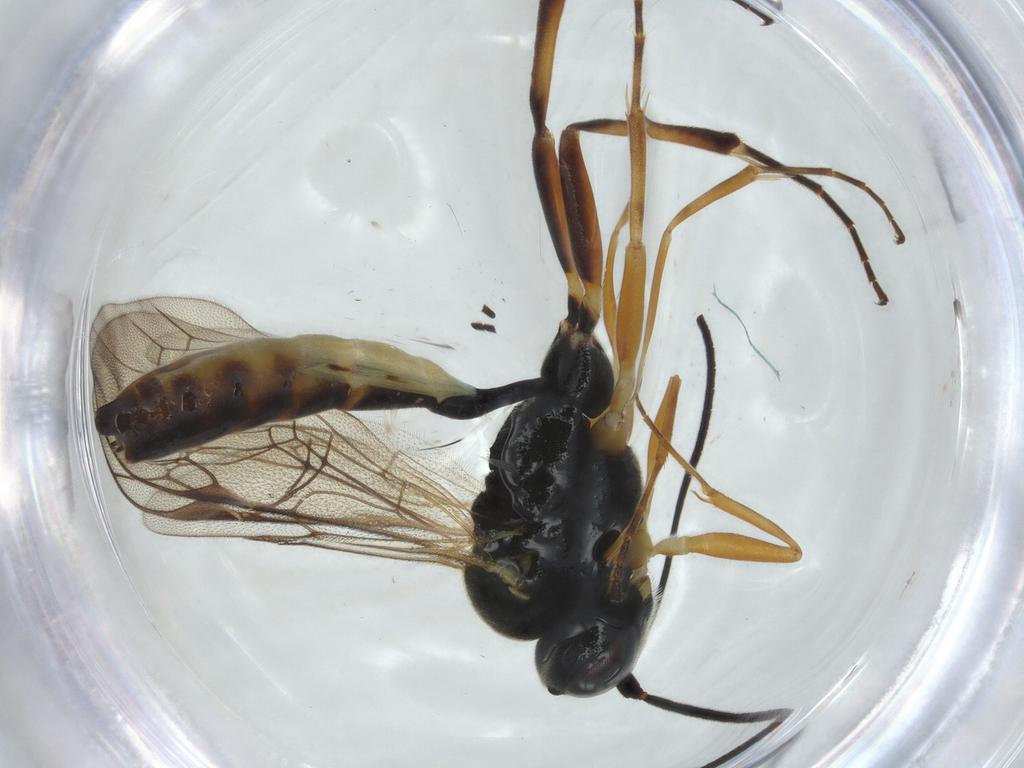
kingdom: Animalia
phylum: Arthropoda
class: Insecta
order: Hymenoptera
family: Ichneumonidae
